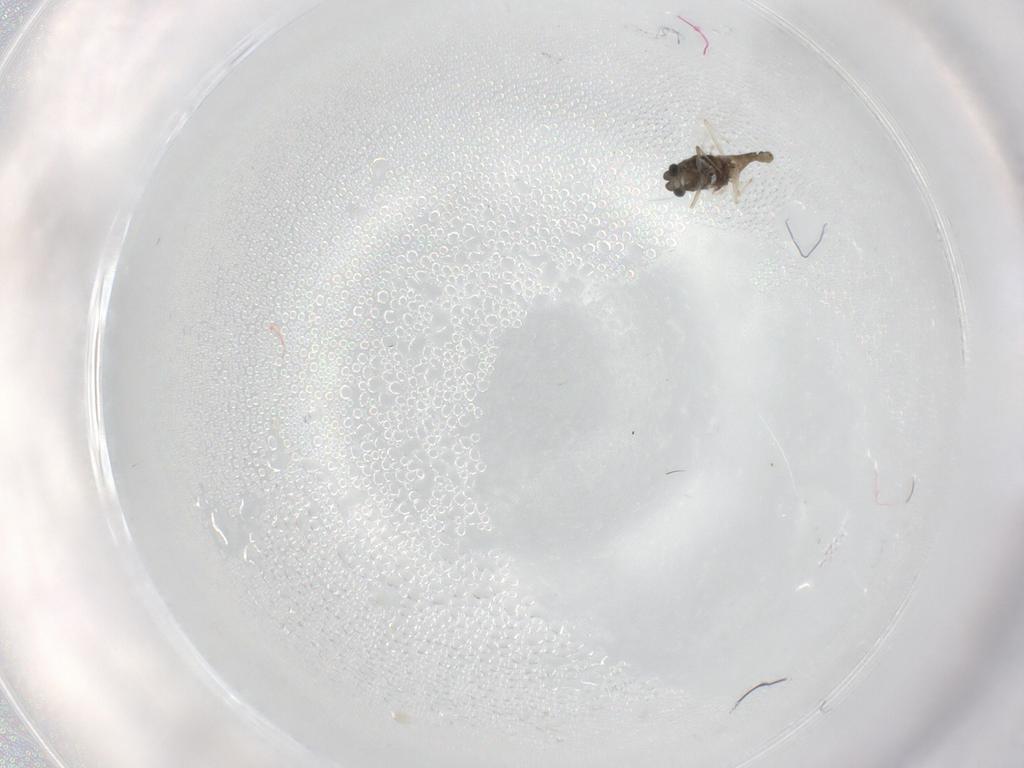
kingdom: Animalia
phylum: Arthropoda
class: Insecta
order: Diptera
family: Chironomidae
